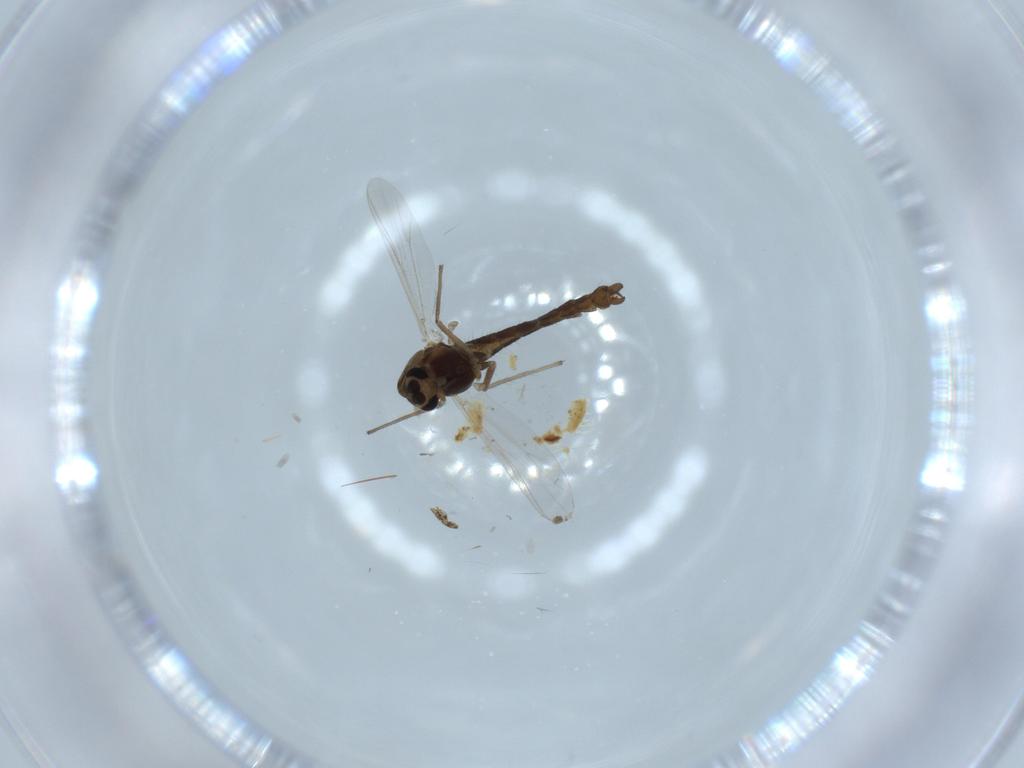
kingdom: Animalia
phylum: Arthropoda
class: Insecta
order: Diptera
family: Chironomidae
